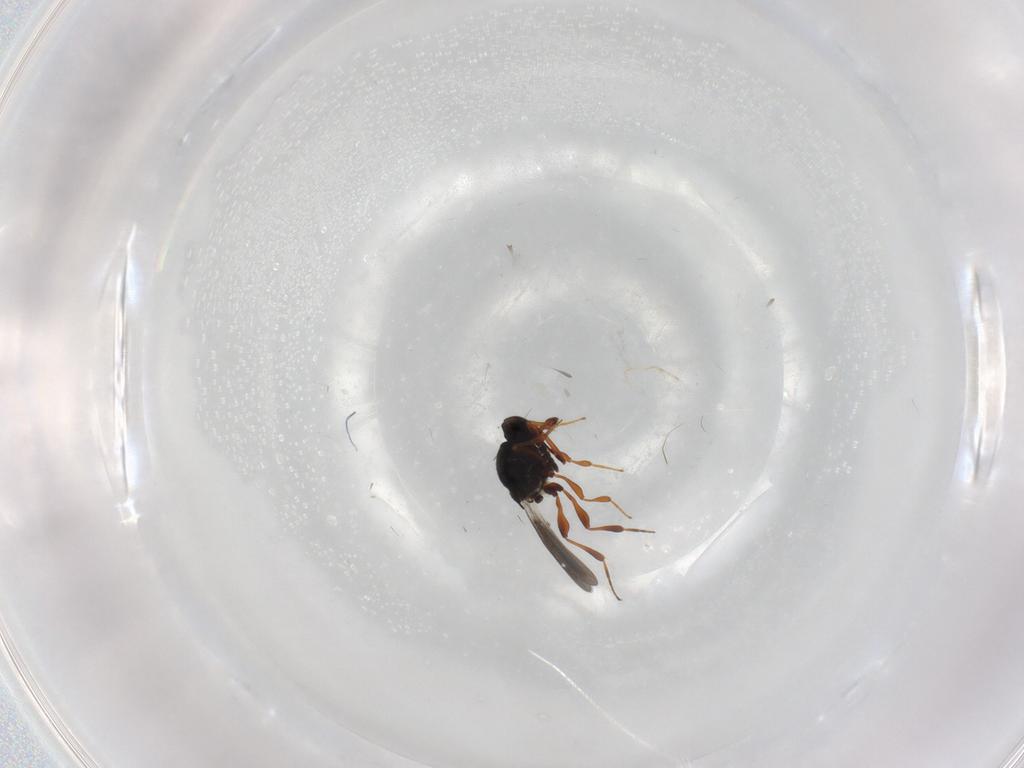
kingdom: Animalia
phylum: Arthropoda
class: Insecta
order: Hymenoptera
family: Platygastridae
